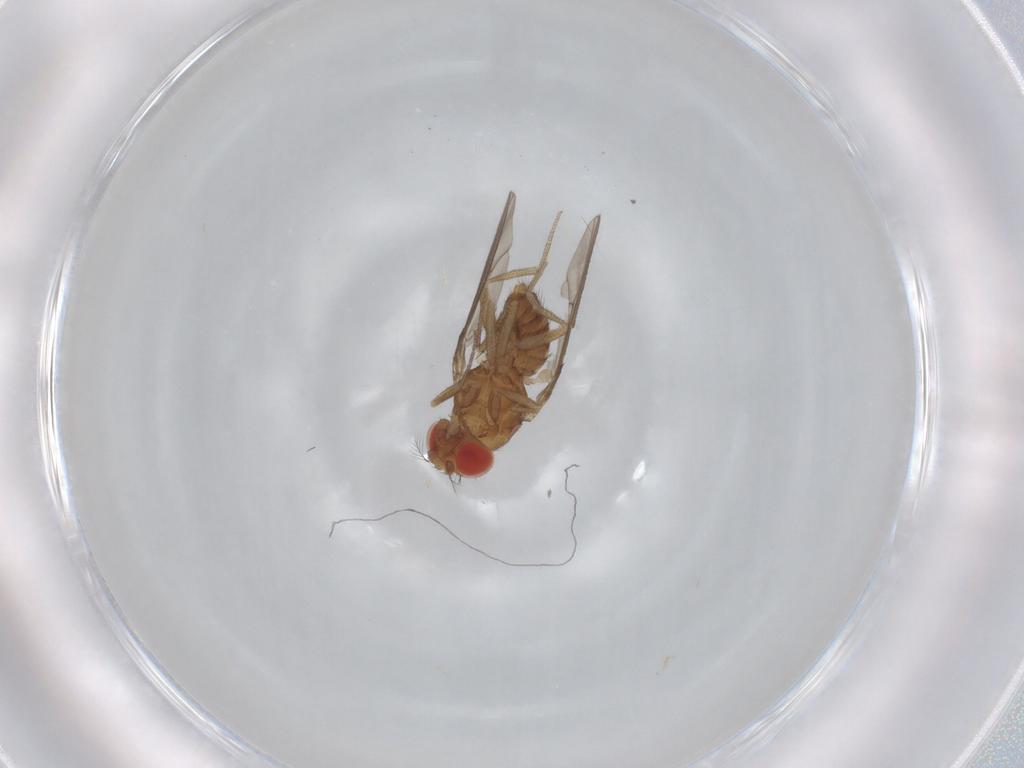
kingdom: Animalia
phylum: Arthropoda
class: Insecta
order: Diptera
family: Drosophilidae
